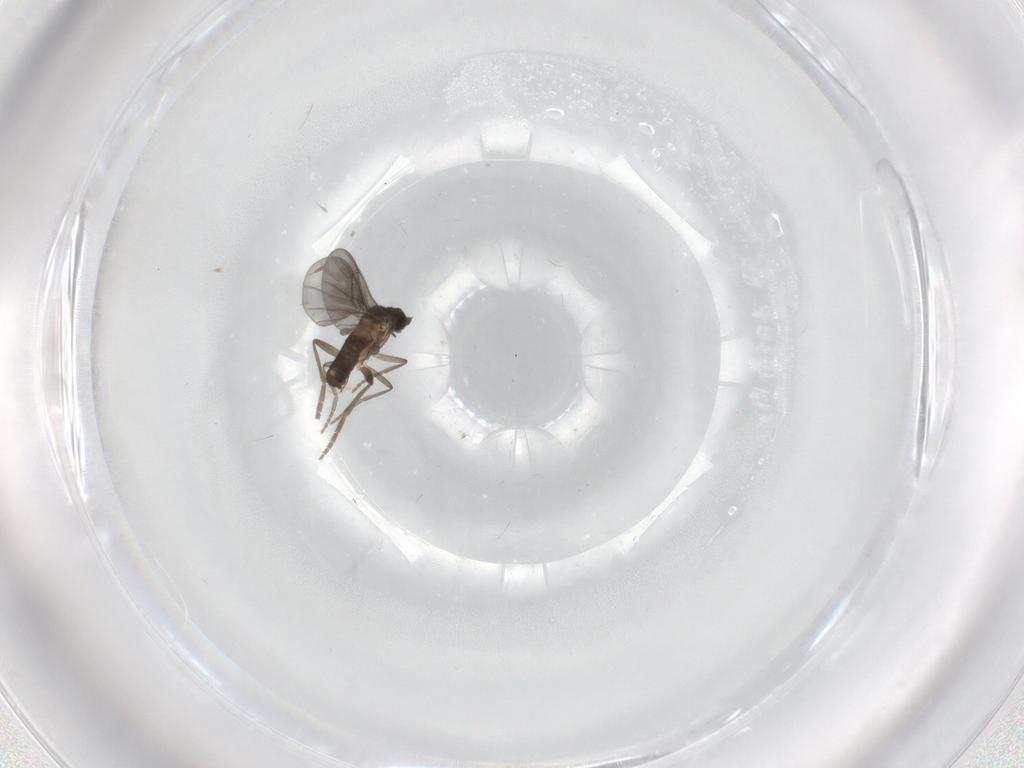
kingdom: Animalia
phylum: Arthropoda
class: Insecta
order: Diptera
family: Phoridae
